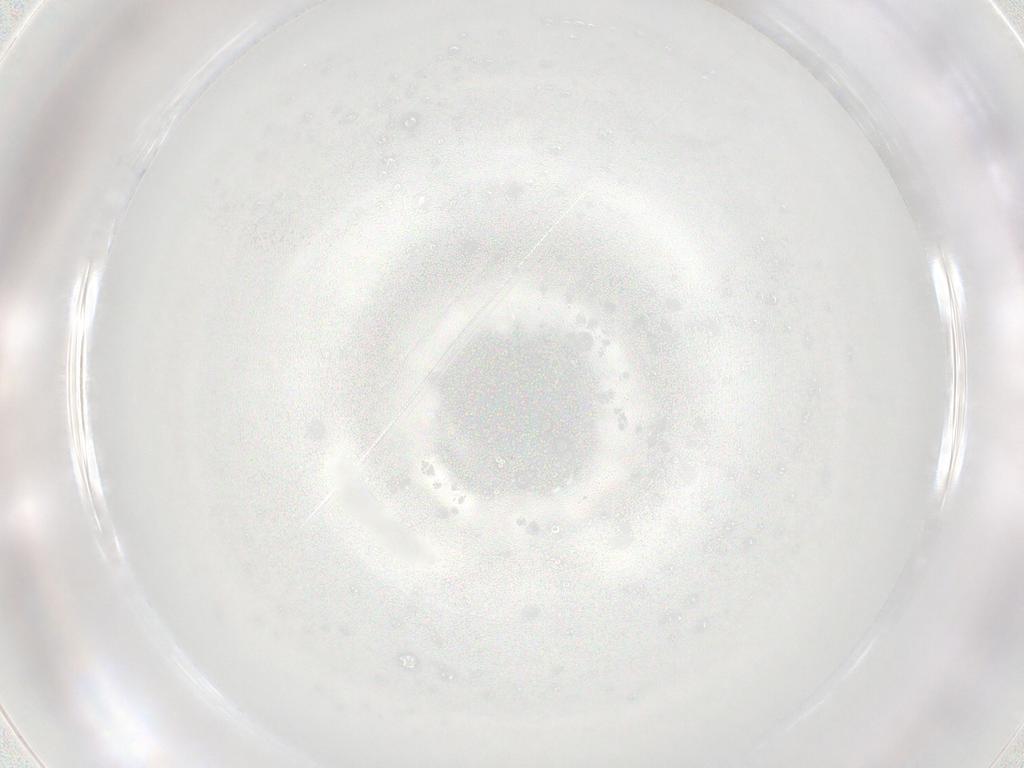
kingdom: Animalia
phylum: Arthropoda
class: Insecta
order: Hymenoptera
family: Mymaridae
